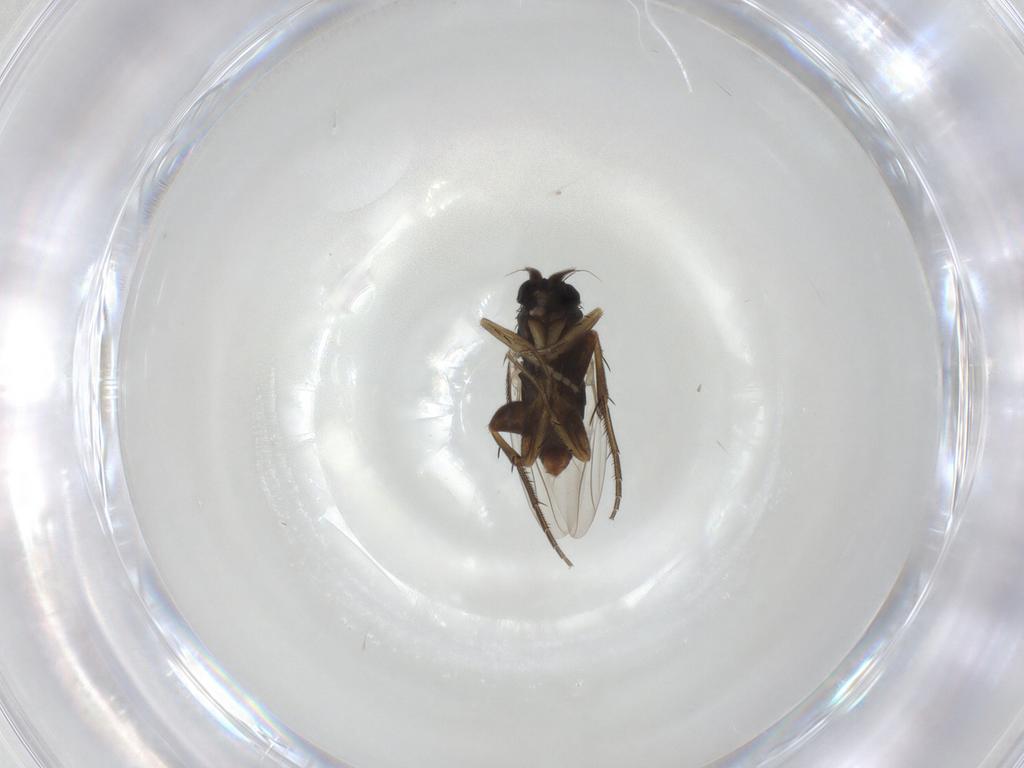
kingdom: Animalia
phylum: Arthropoda
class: Insecta
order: Diptera
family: Phoridae
